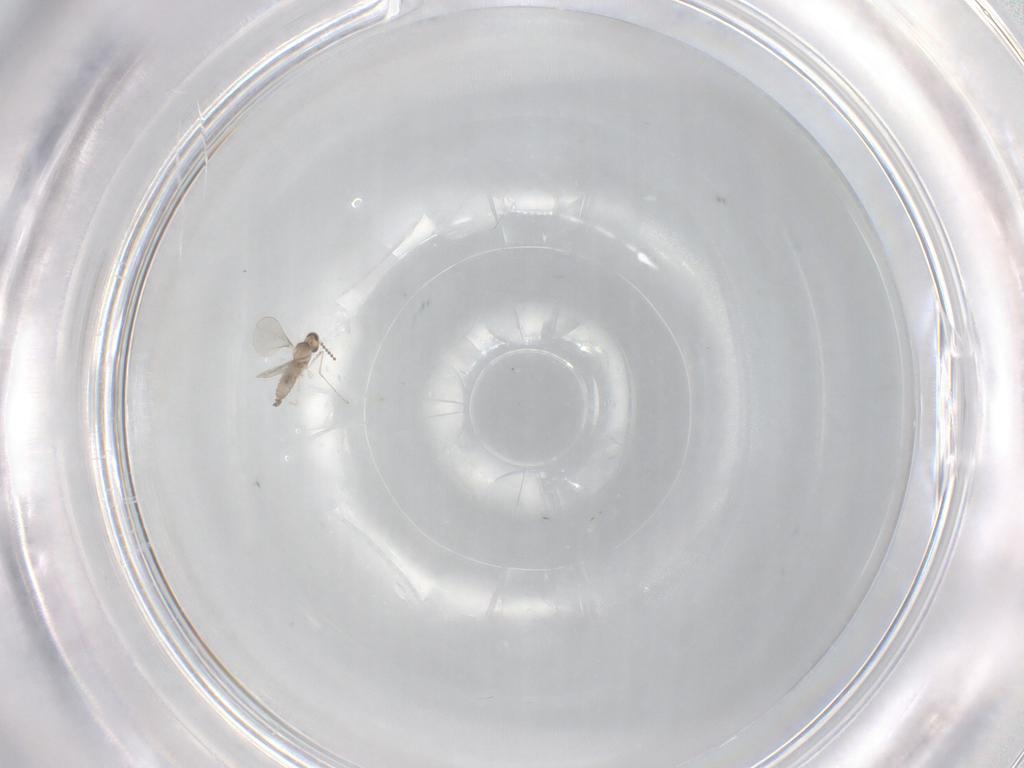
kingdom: Animalia
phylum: Arthropoda
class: Insecta
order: Diptera
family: Cecidomyiidae
